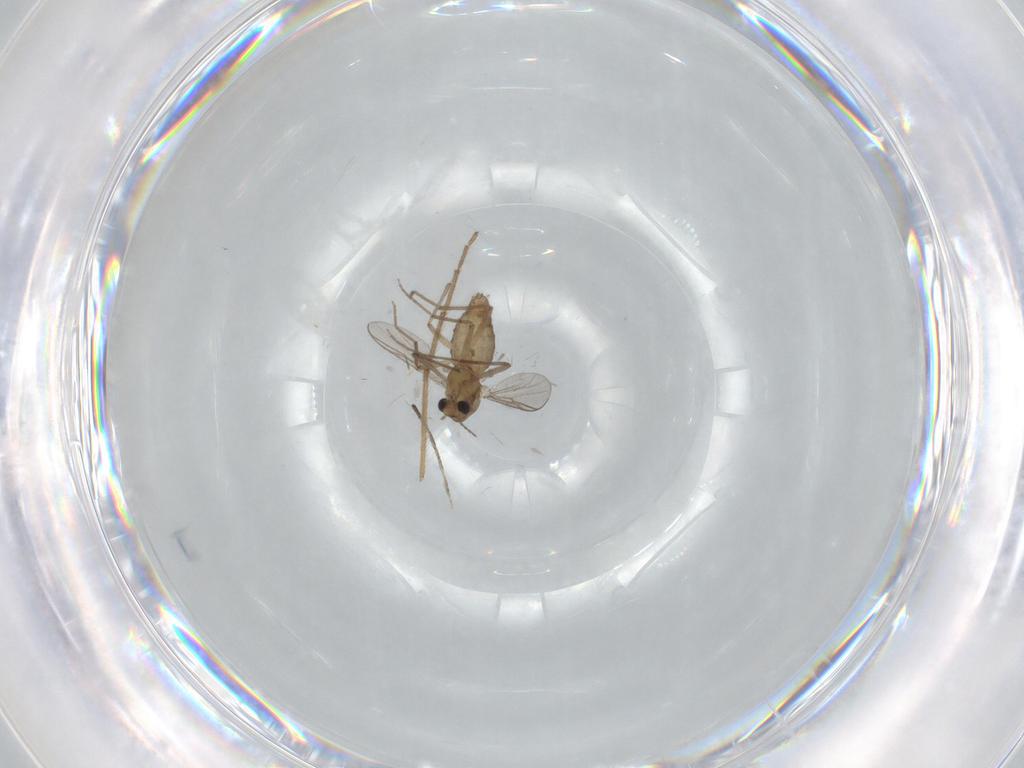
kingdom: Animalia
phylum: Arthropoda
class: Insecta
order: Diptera
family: Chironomidae
